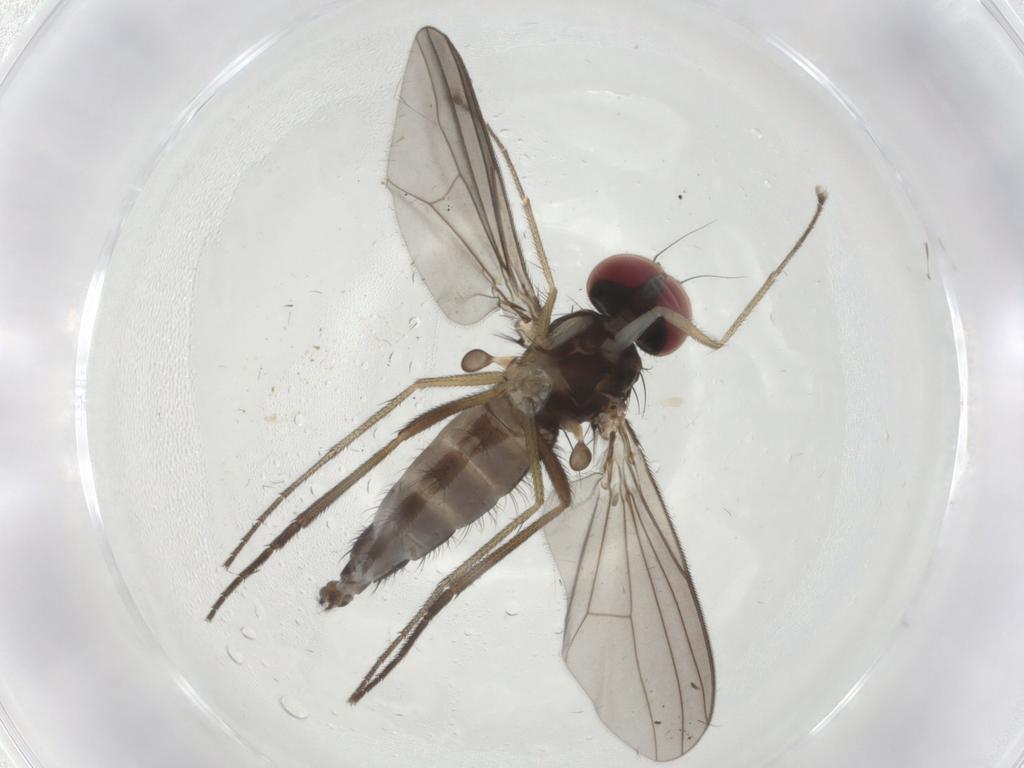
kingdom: Animalia
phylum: Arthropoda
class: Insecta
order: Diptera
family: Dolichopodidae
